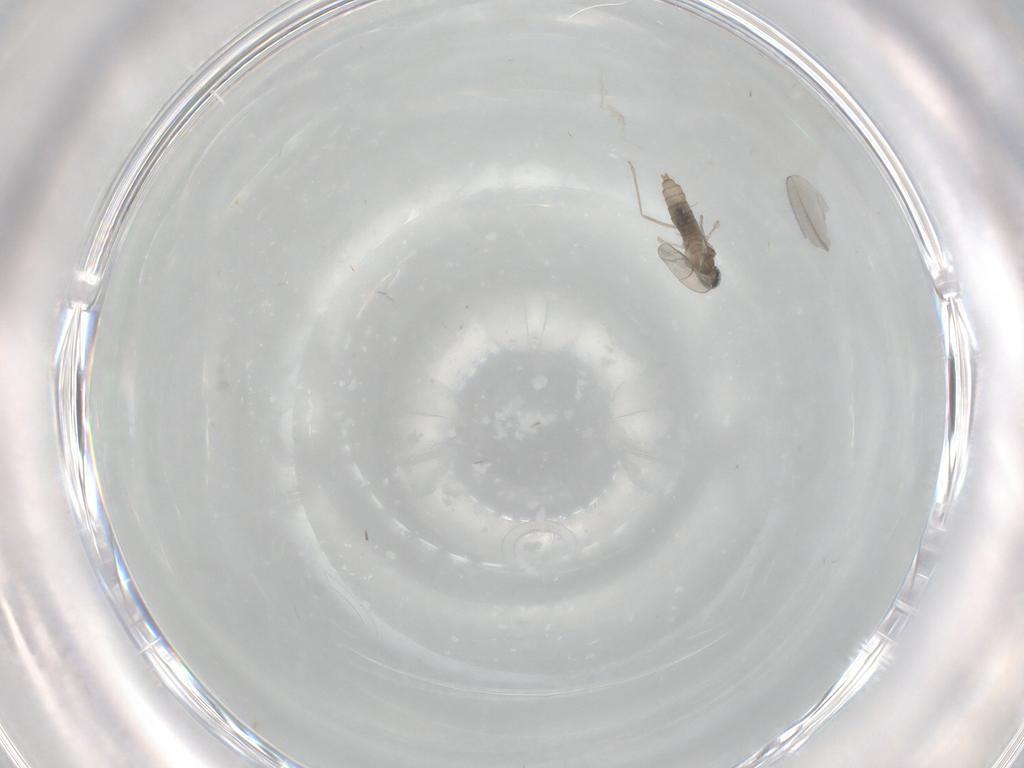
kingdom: Animalia
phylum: Arthropoda
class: Insecta
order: Diptera
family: Cecidomyiidae
